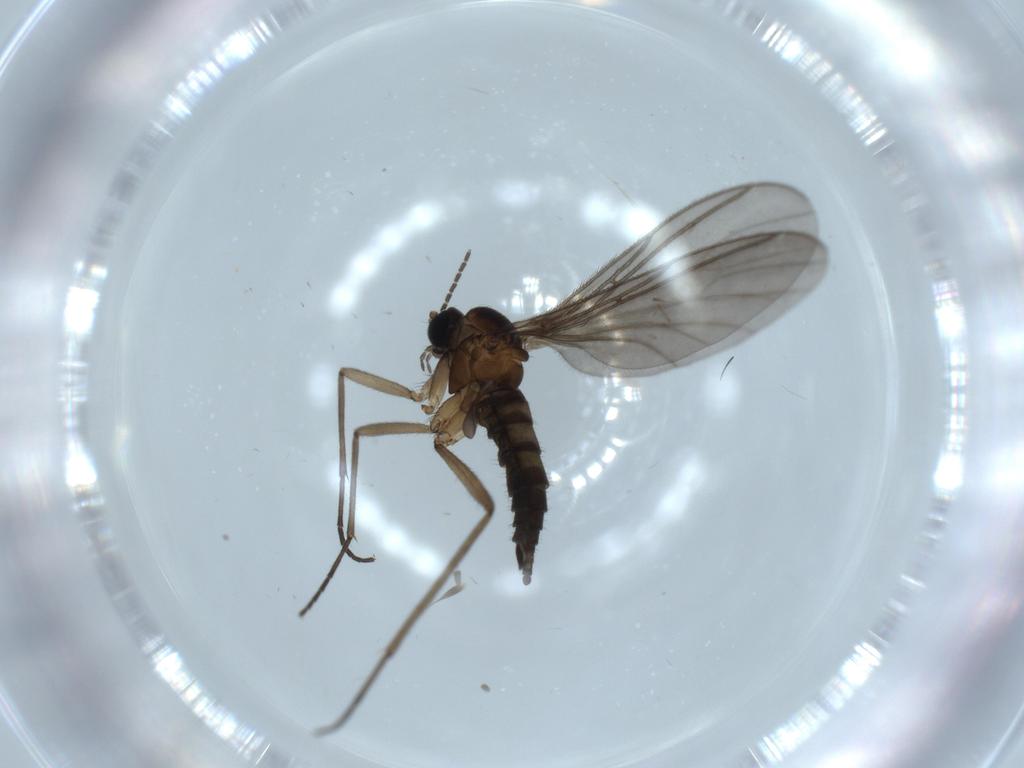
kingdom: Animalia
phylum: Arthropoda
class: Insecta
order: Diptera
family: Sciaridae
